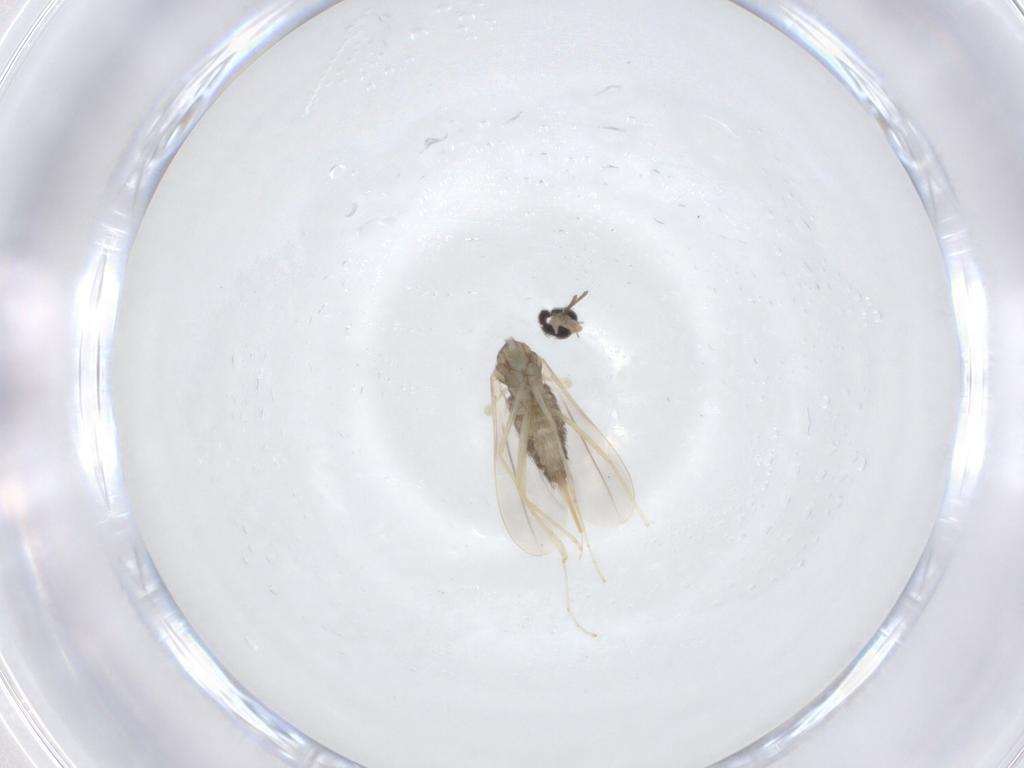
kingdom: Animalia
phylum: Arthropoda
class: Insecta
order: Diptera
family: Cecidomyiidae
